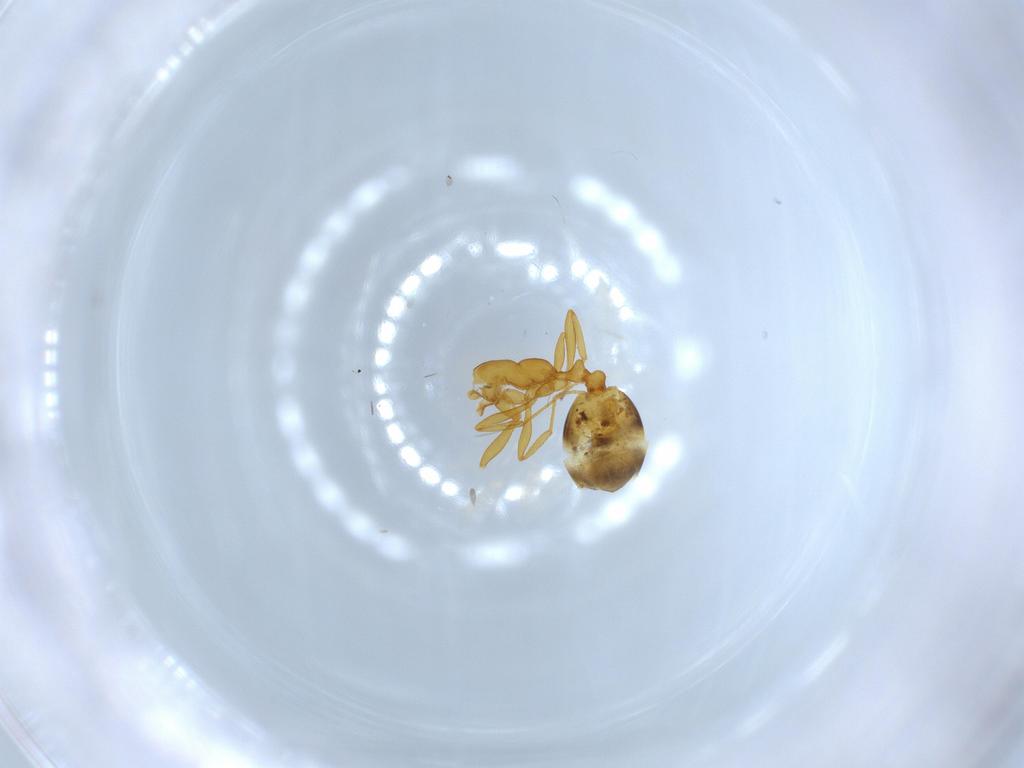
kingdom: Animalia
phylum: Arthropoda
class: Insecta
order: Hymenoptera
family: Formicidae
